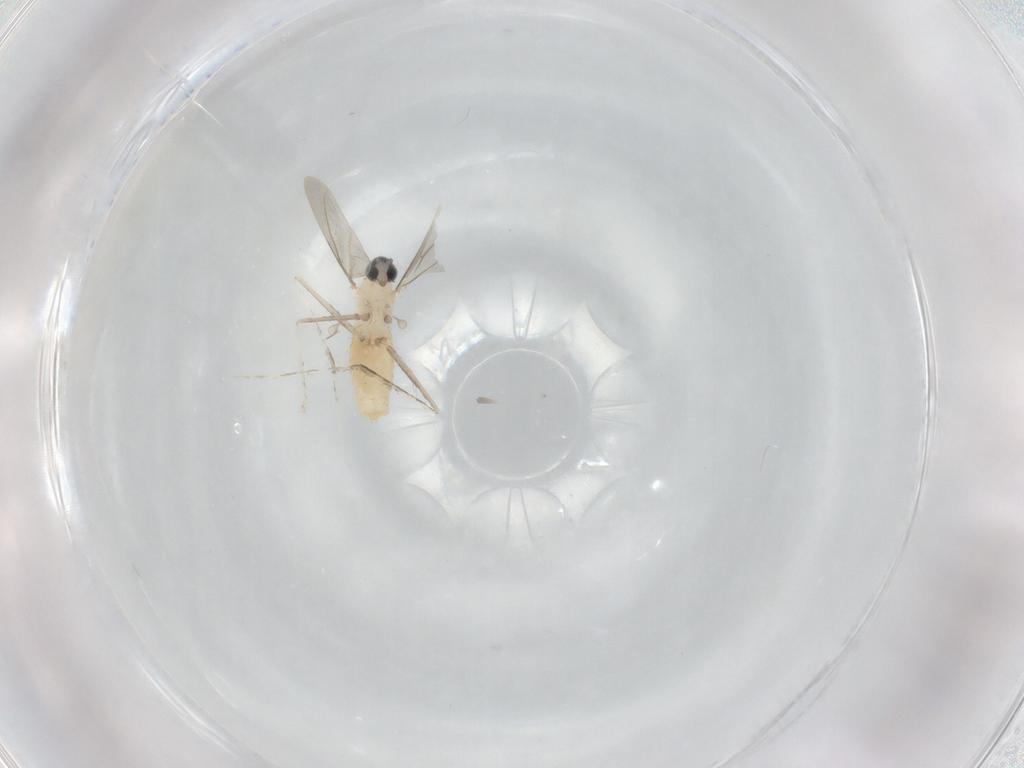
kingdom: Animalia
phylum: Arthropoda
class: Insecta
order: Diptera
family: Cecidomyiidae
